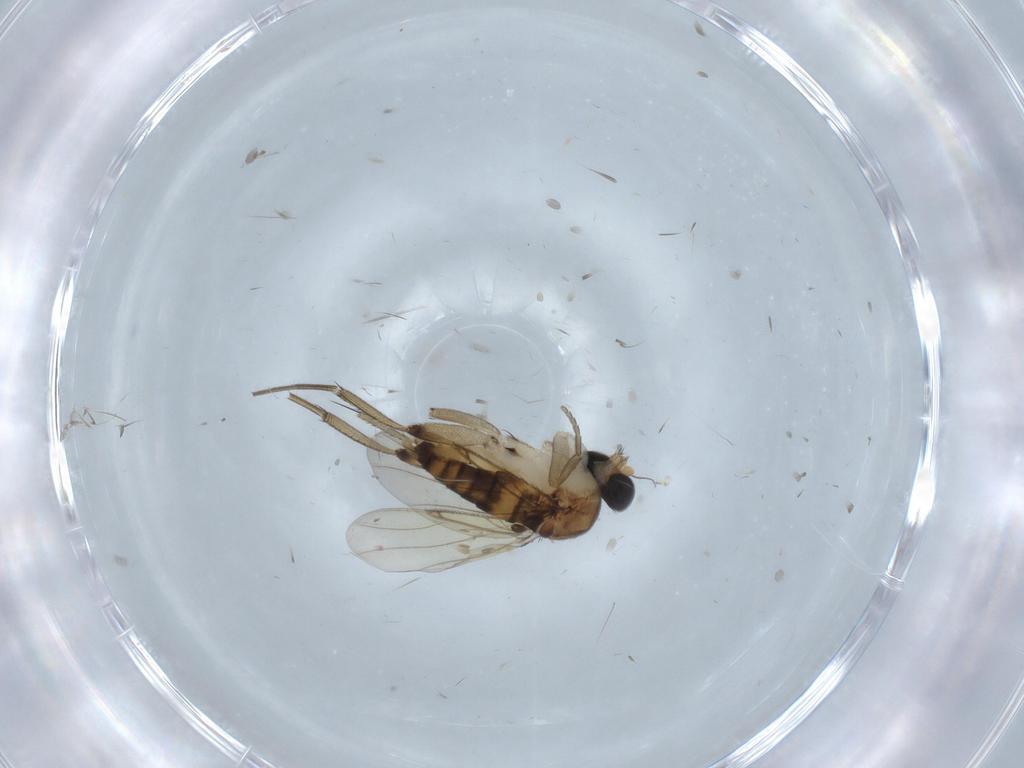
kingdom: Animalia
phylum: Arthropoda
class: Insecta
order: Diptera
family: Phoridae
